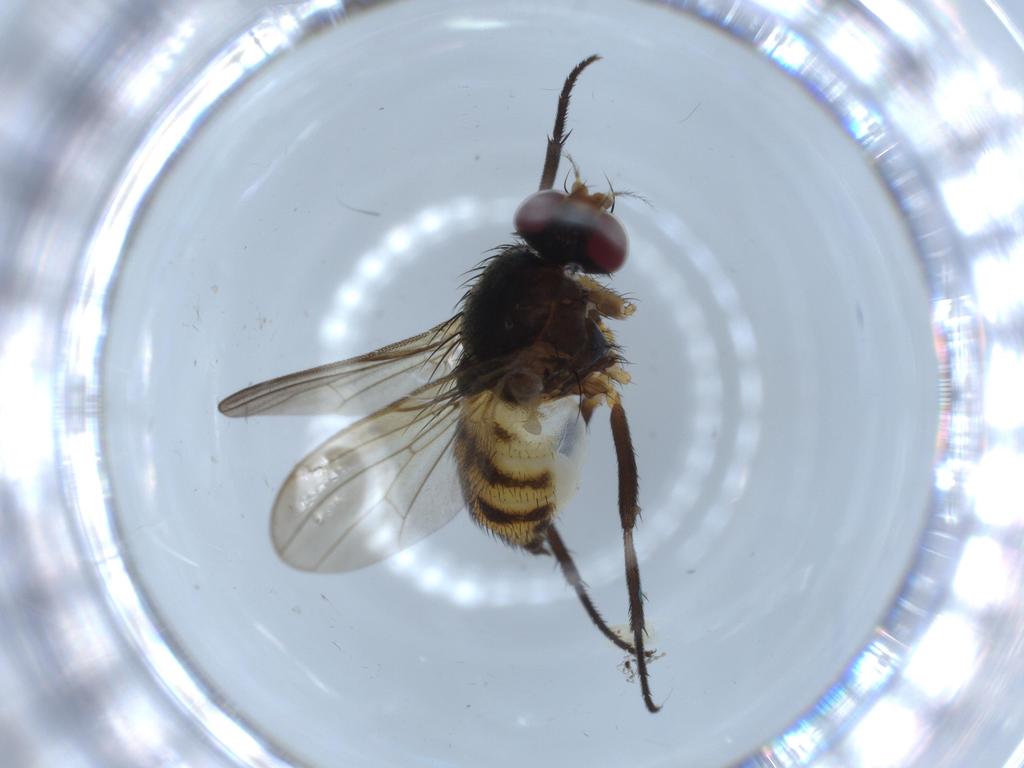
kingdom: Animalia
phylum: Arthropoda
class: Insecta
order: Diptera
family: Anthomyiidae
